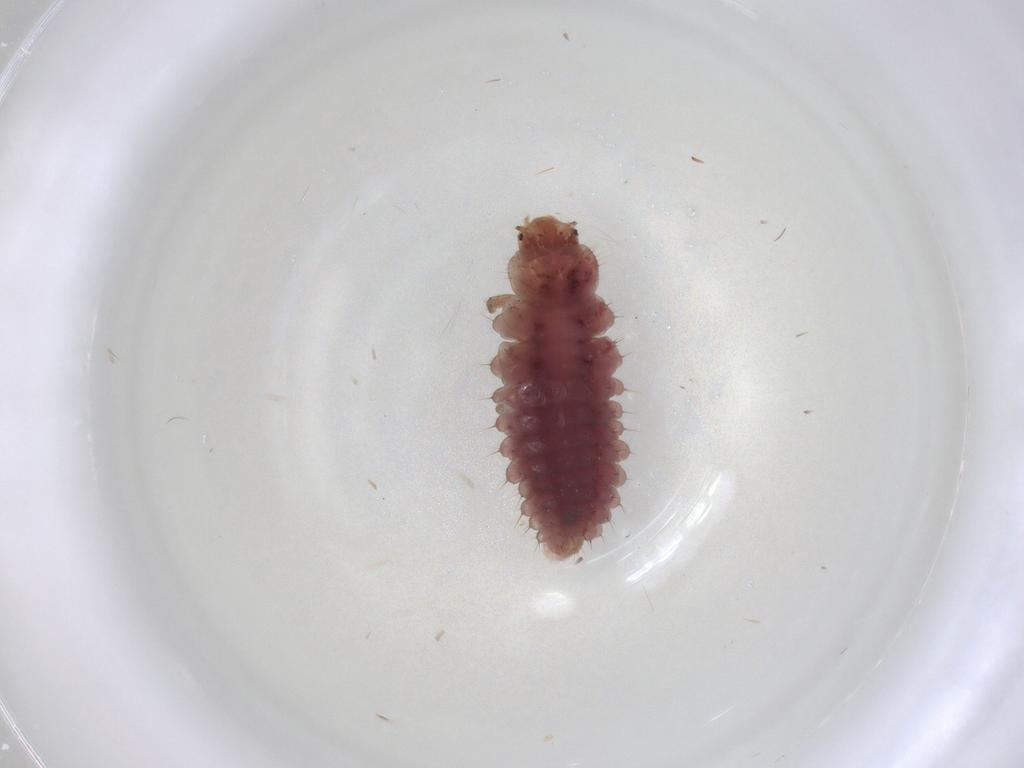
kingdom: Animalia
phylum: Arthropoda
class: Insecta
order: Coleoptera
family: Coccinellidae
